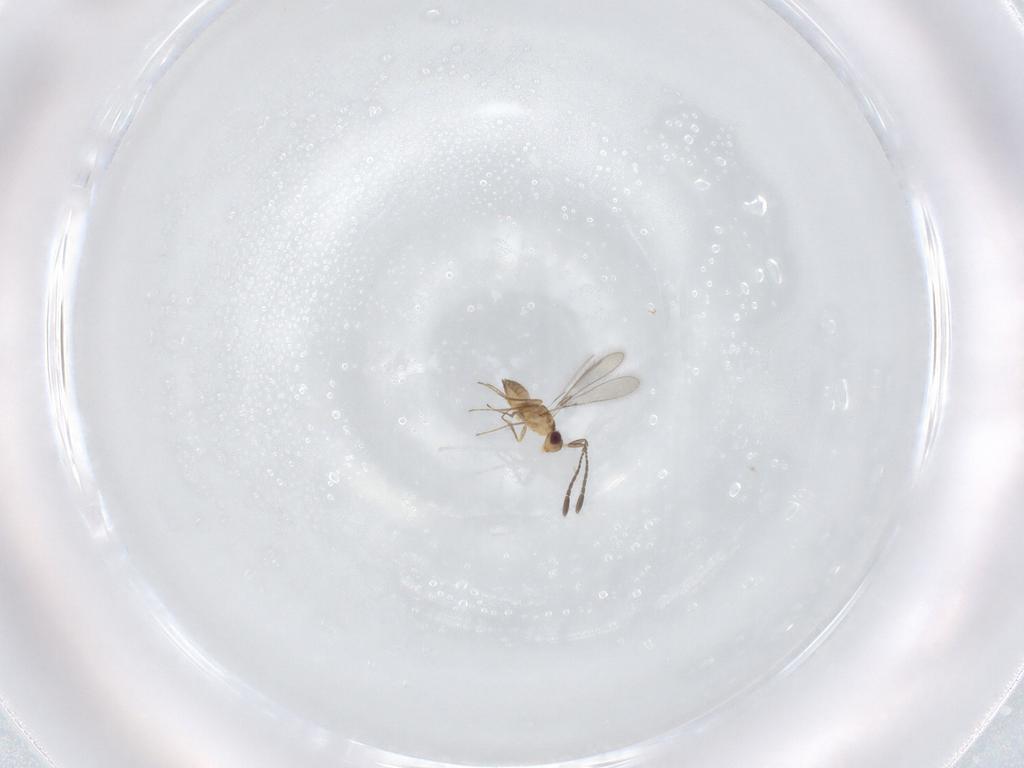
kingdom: Animalia
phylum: Arthropoda
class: Insecta
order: Hymenoptera
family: Mymaridae
